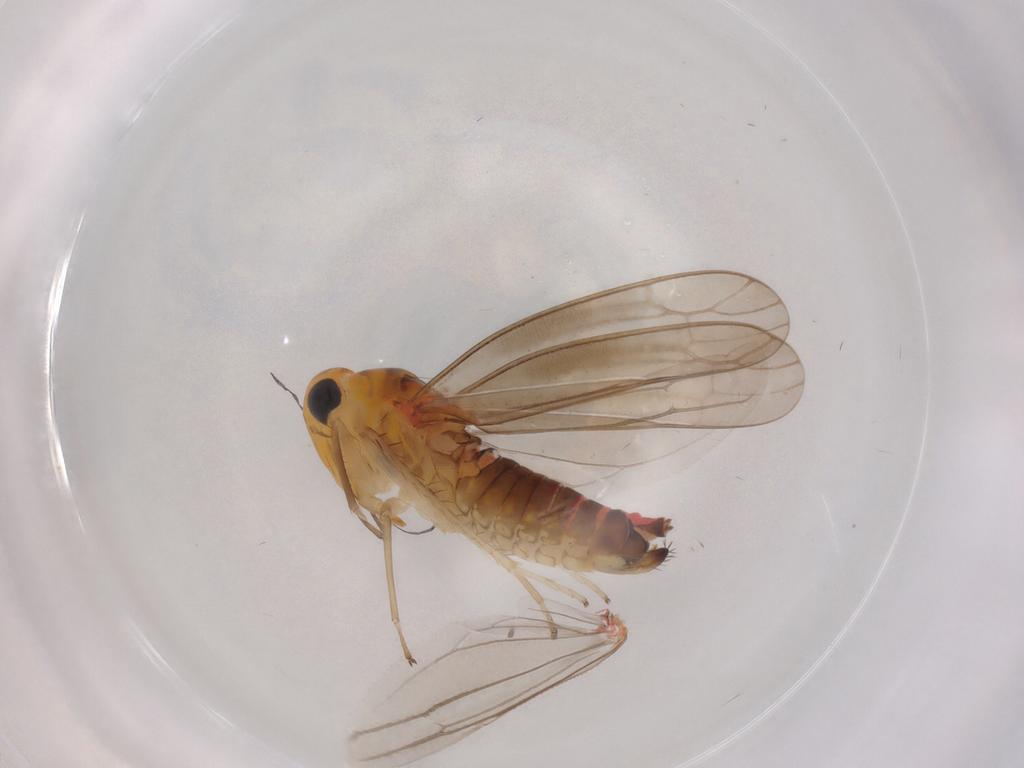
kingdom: Animalia
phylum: Arthropoda
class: Insecta
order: Hemiptera
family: Cicadellidae
